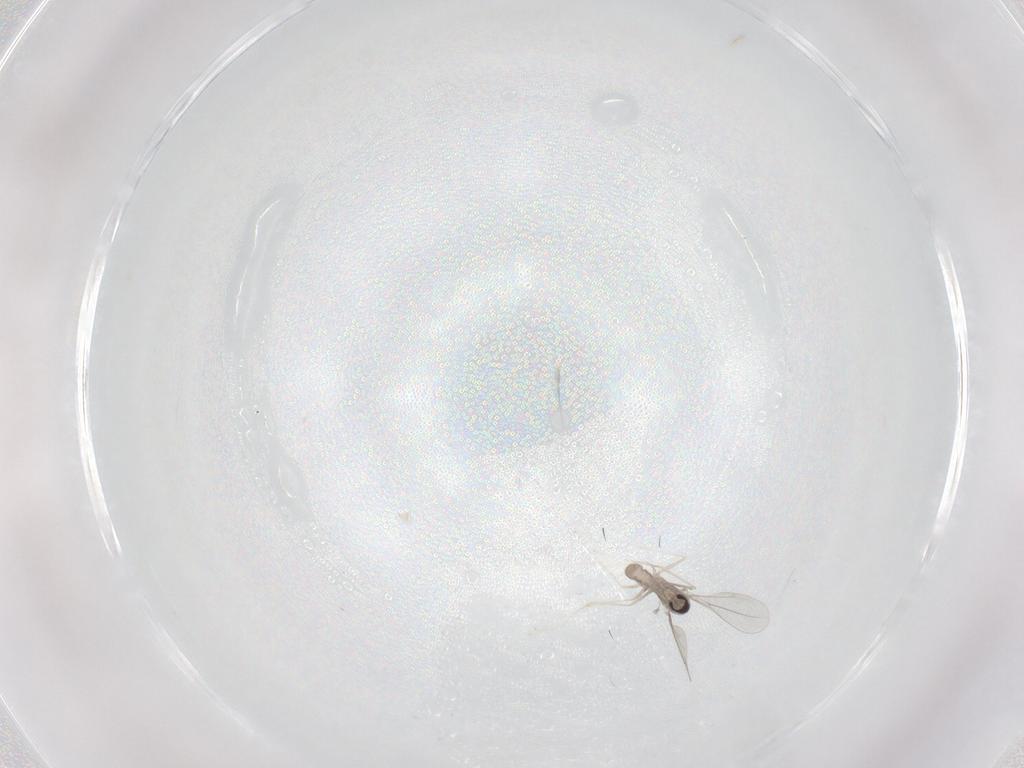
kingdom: Animalia
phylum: Arthropoda
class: Insecta
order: Diptera
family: Cecidomyiidae
